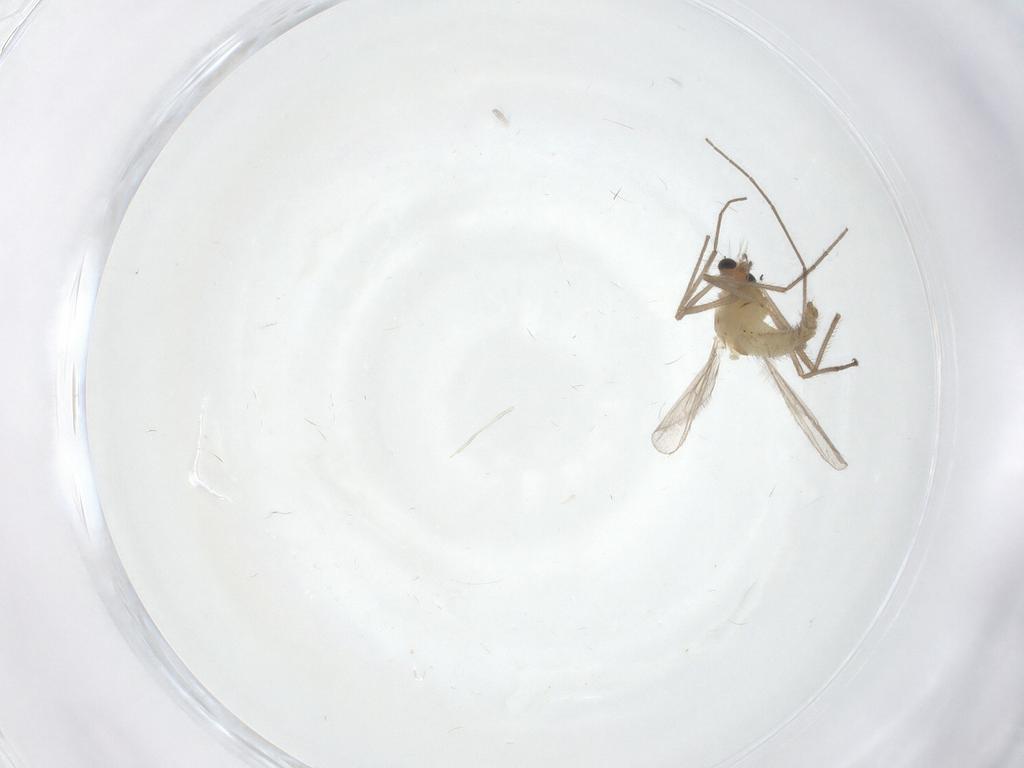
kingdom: Animalia
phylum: Arthropoda
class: Insecta
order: Diptera
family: Chironomidae
